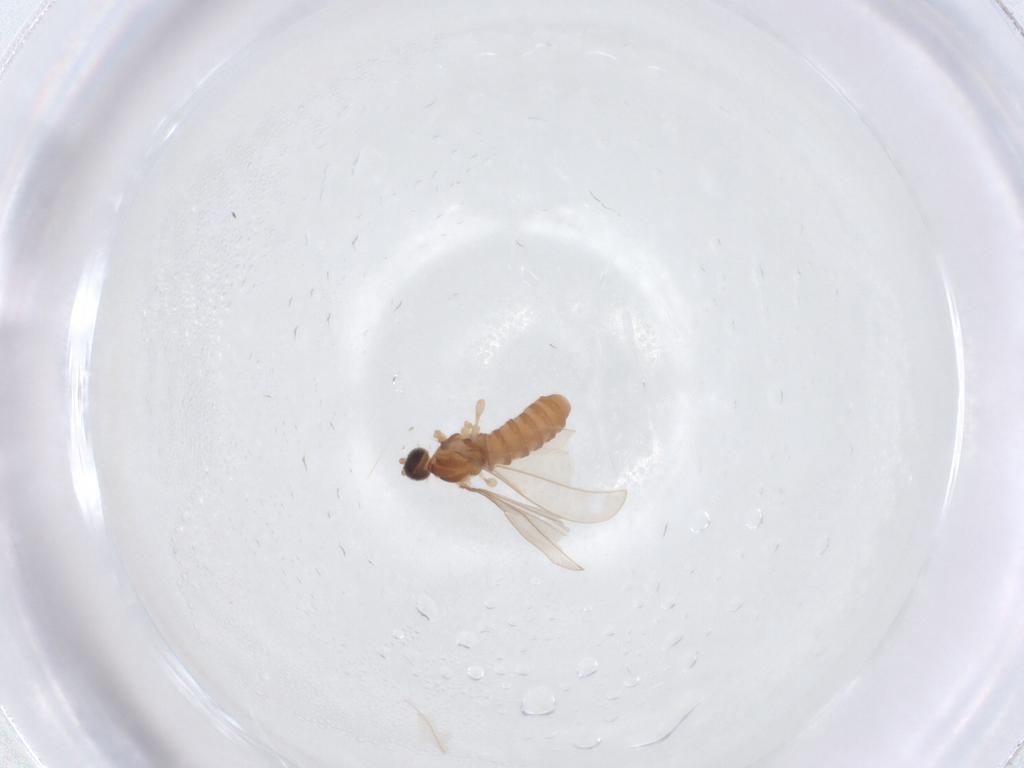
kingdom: Animalia
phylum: Arthropoda
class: Insecta
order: Diptera
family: Cecidomyiidae
